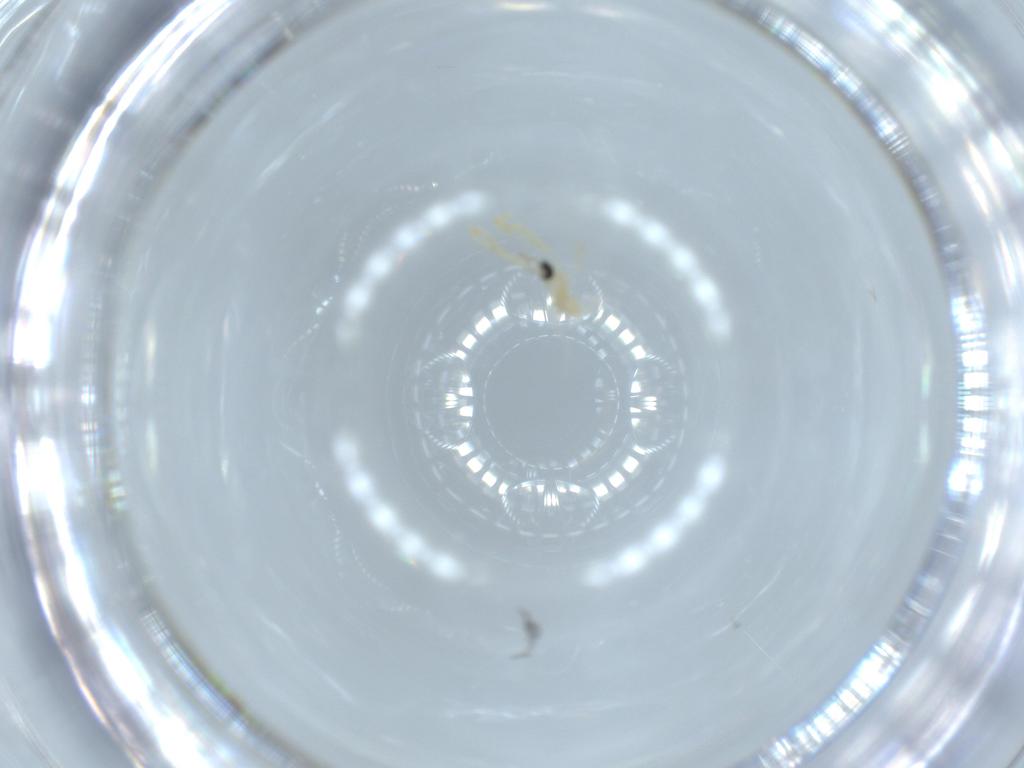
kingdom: Animalia
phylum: Arthropoda
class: Insecta
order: Diptera
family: Cecidomyiidae
